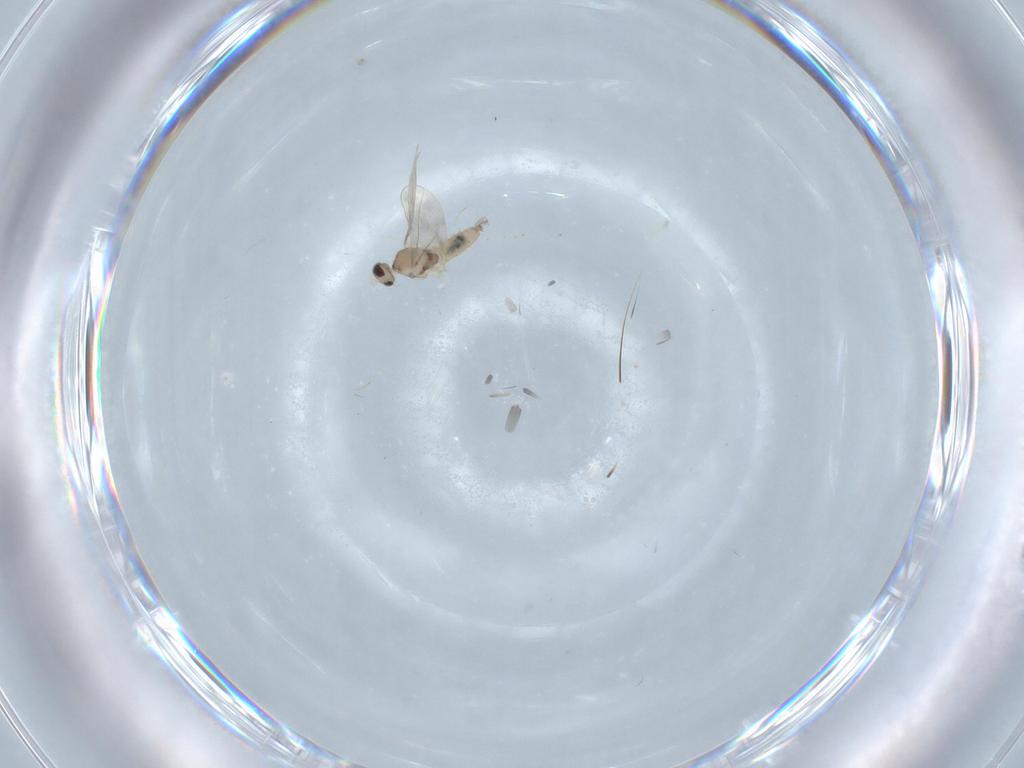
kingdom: Animalia
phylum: Arthropoda
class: Insecta
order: Diptera
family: Cecidomyiidae
